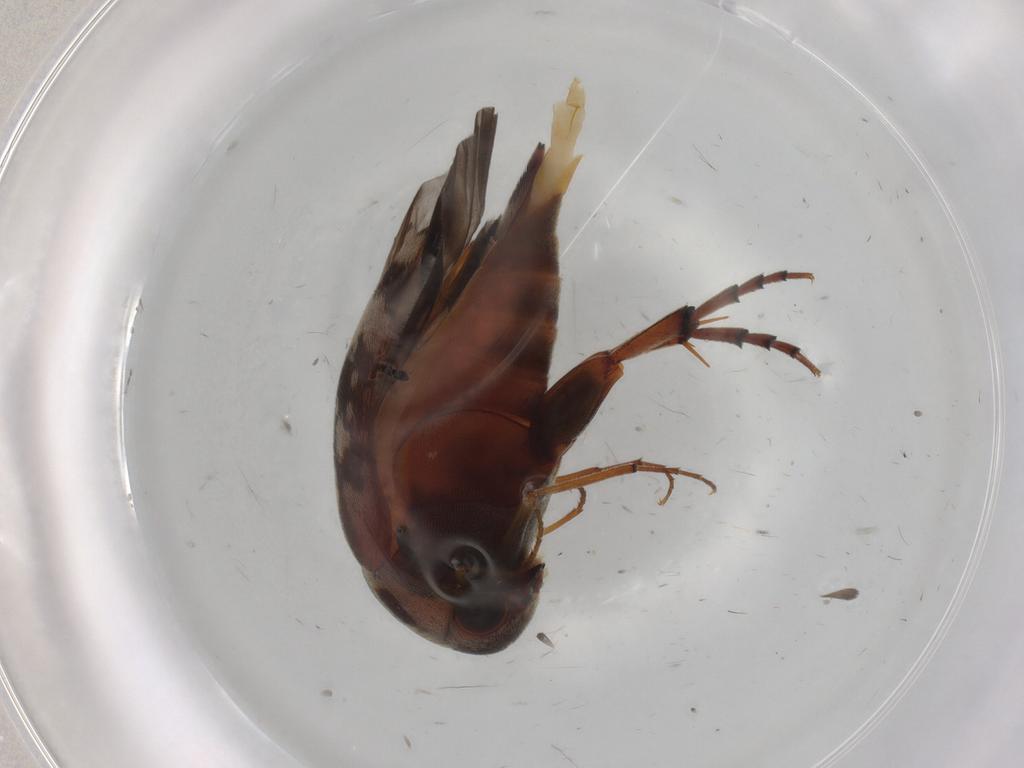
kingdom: Animalia
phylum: Arthropoda
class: Insecta
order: Coleoptera
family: Mordellidae
